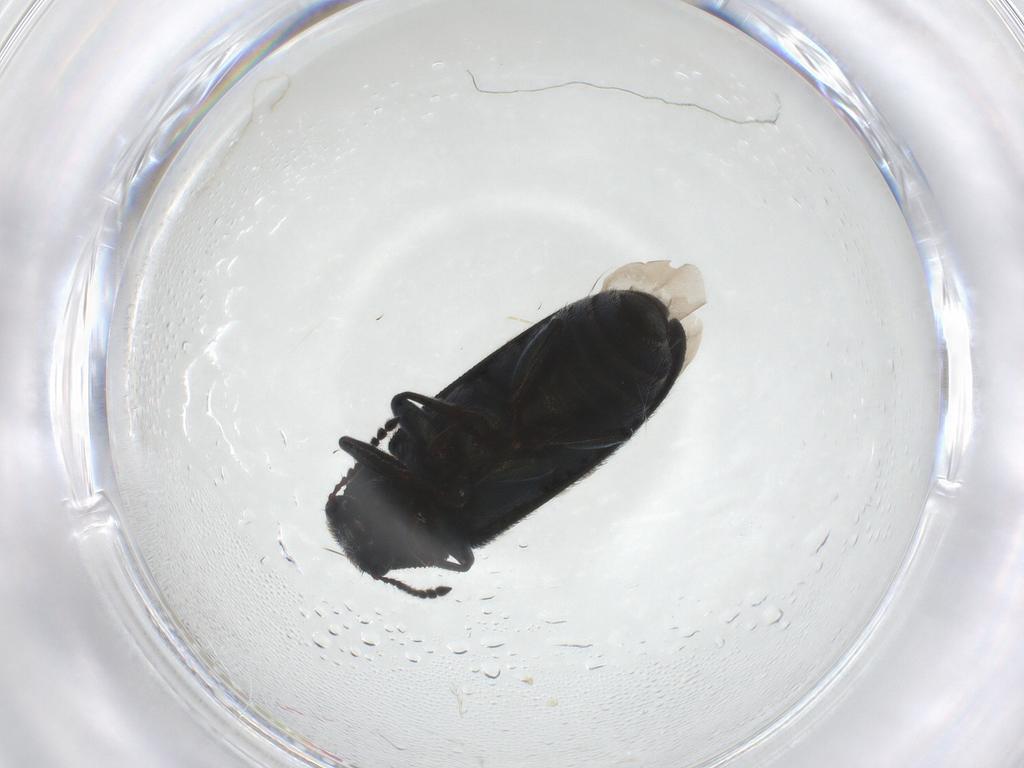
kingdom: Animalia
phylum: Arthropoda
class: Insecta
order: Coleoptera
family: Melyridae
